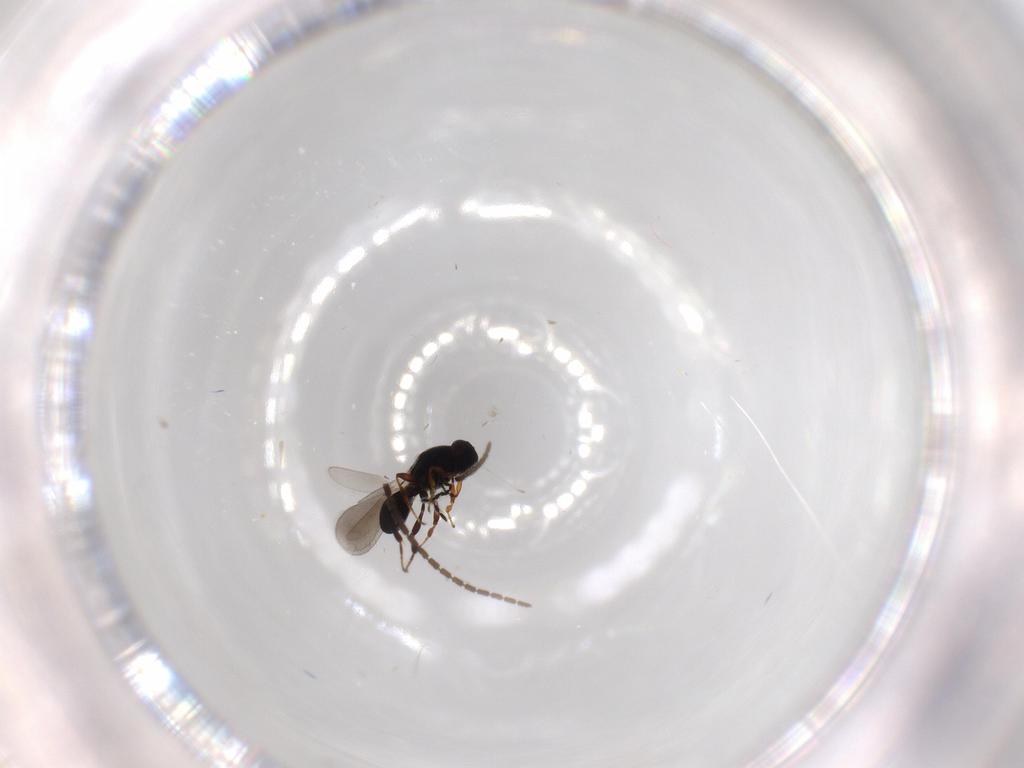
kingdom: Animalia
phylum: Arthropoda
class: Insecta
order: Hymenoptera
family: Platygastridae
